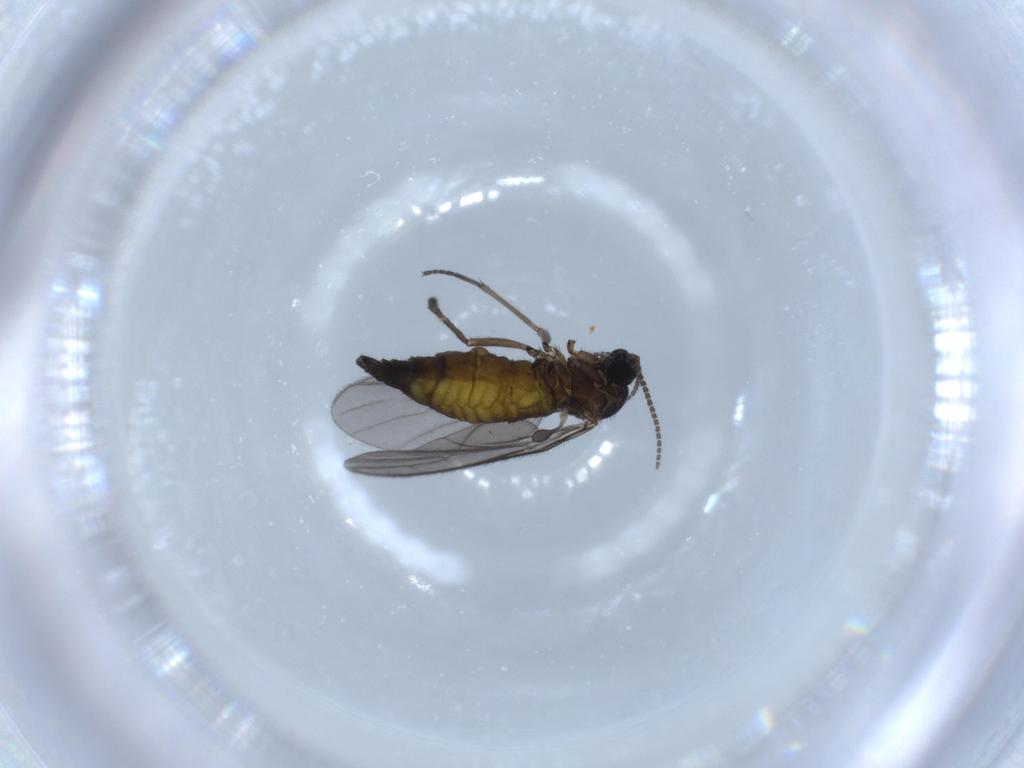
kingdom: Animalia
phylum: Arthropoda
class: Insecta
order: Diptera
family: Sciaridae
